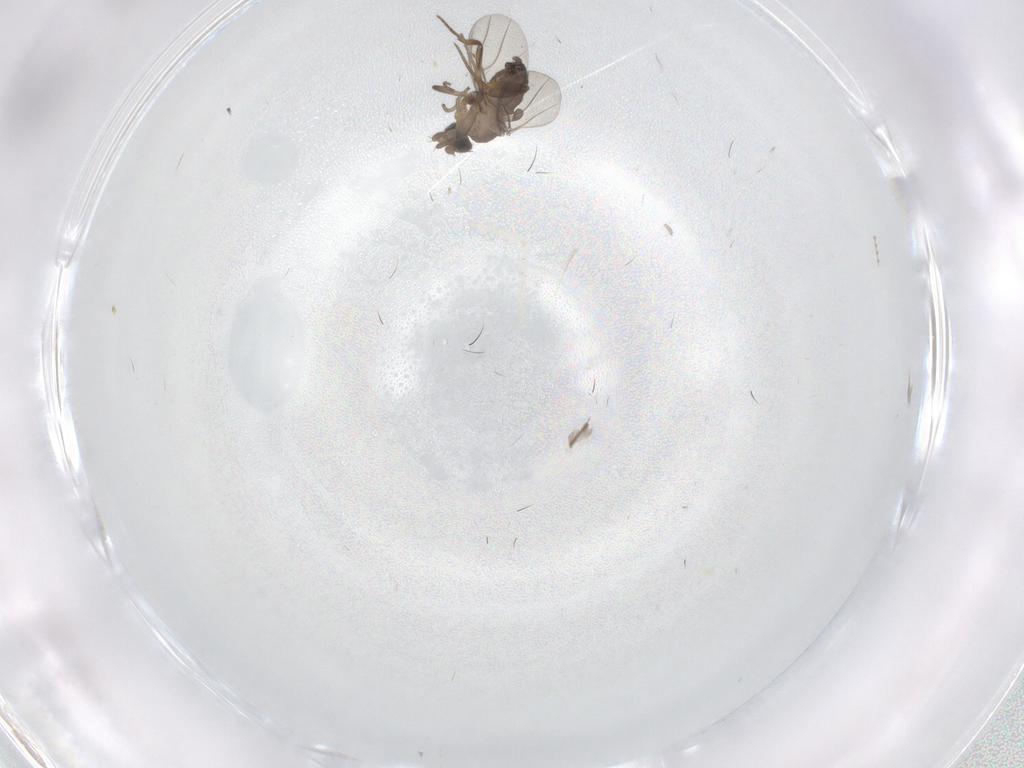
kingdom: Animalia
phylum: Arthropoda
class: Insecta
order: Diptera
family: Cecidomyiidae
